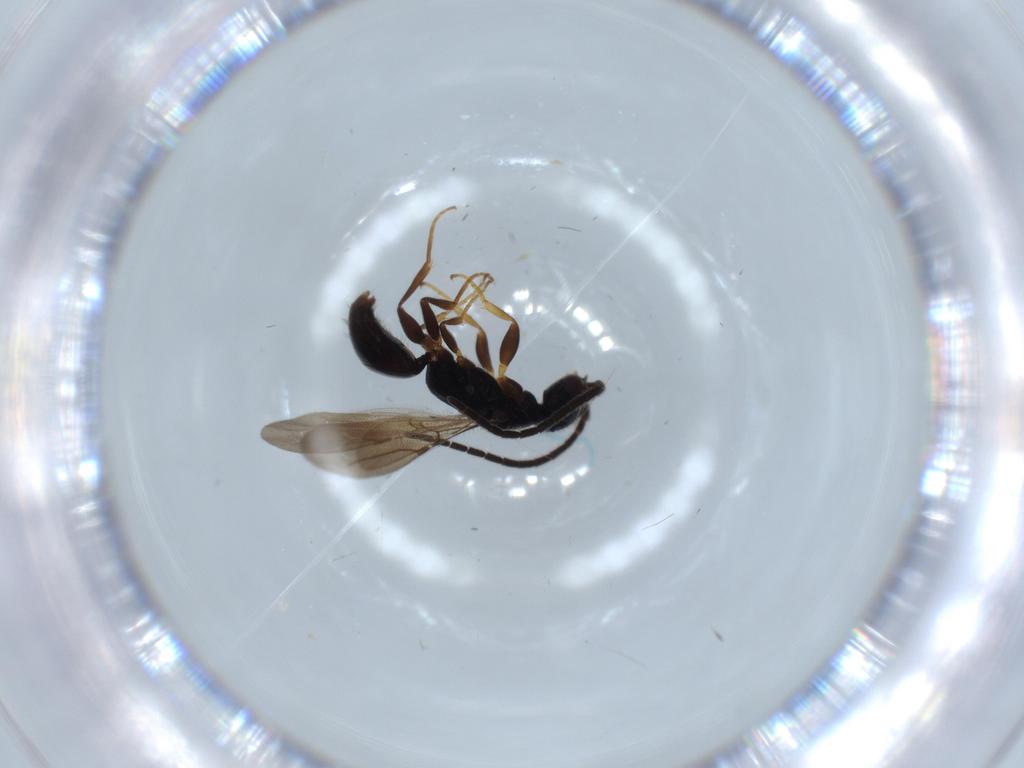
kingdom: Animalia
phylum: Arthropoda
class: Insecta
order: Hymenoptera
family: Bethylidae
